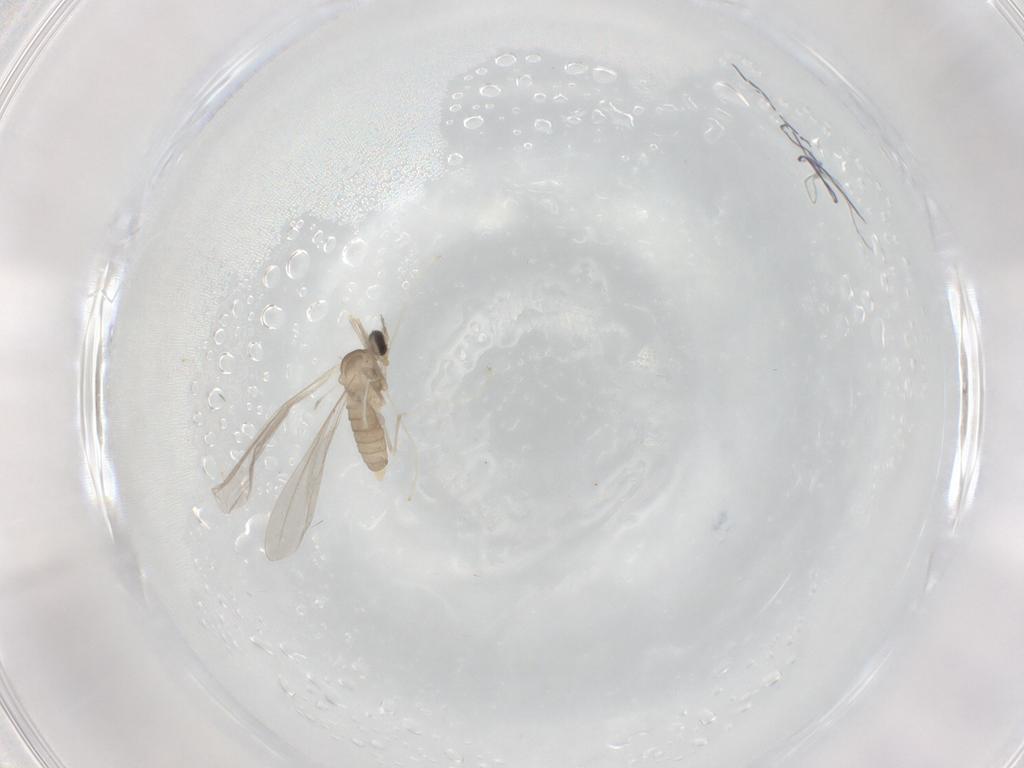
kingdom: Animalia
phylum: Arthropoda
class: Insecta
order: Diptera
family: Cecidomyiidae
